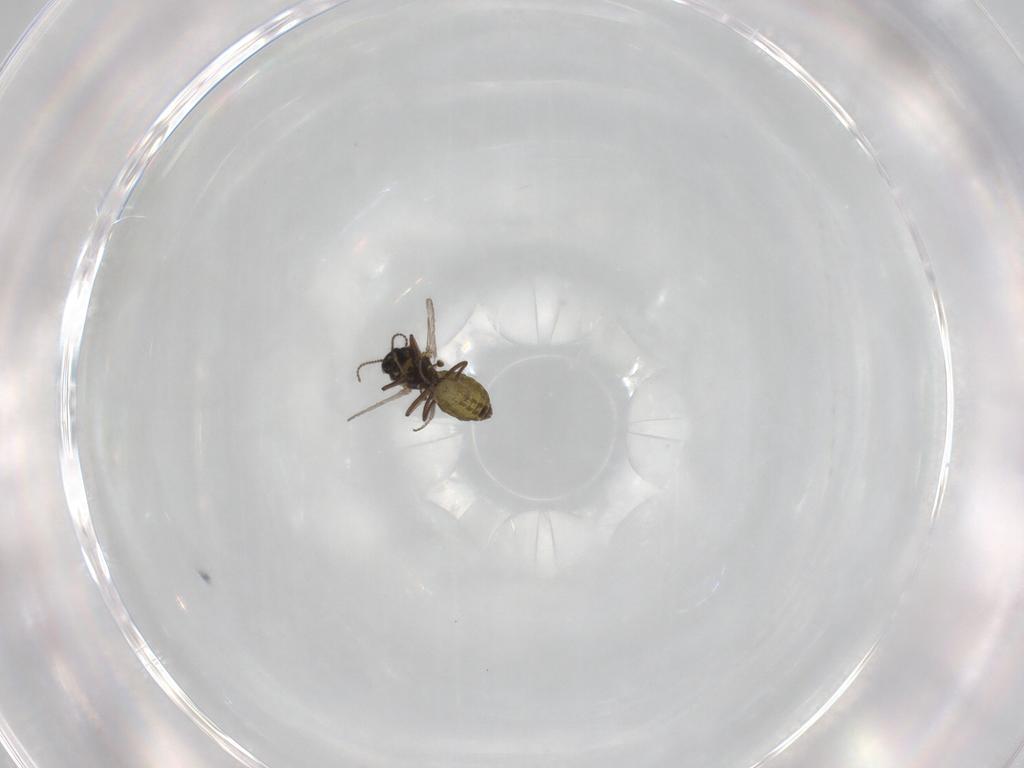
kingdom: Animalia
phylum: Arthropoda
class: Insecta
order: Diptera
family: Ceratopogonidae
